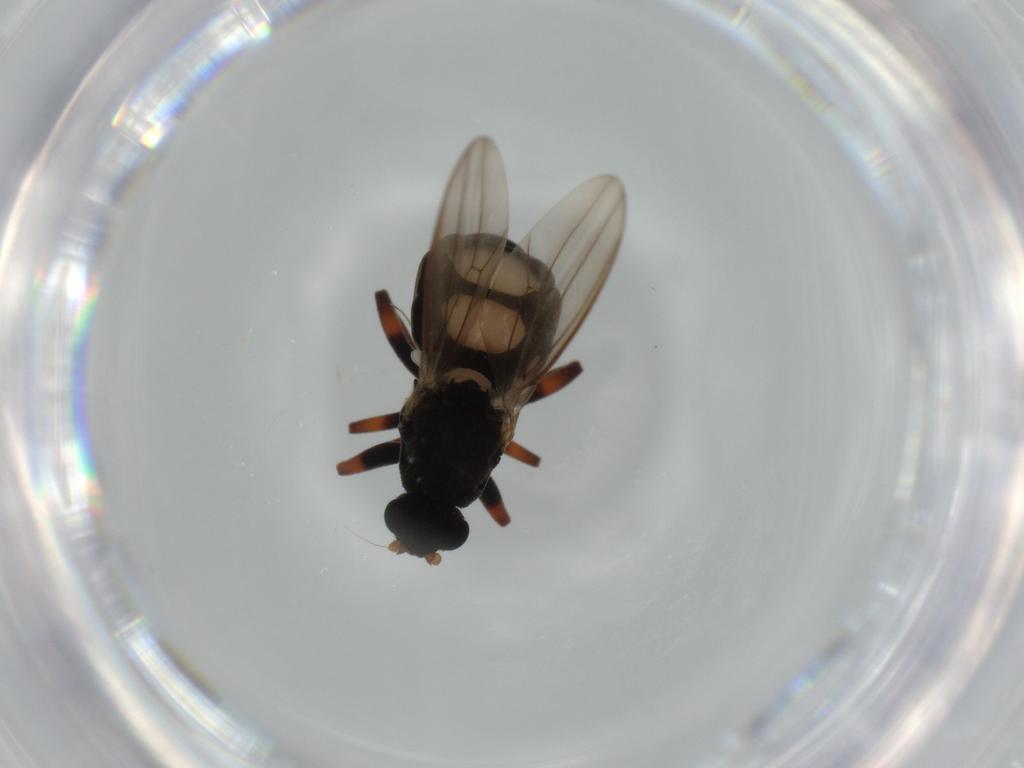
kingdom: Animalia
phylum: Arthropoda
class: Insecta
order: Diptera
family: Sphaeroceridae
